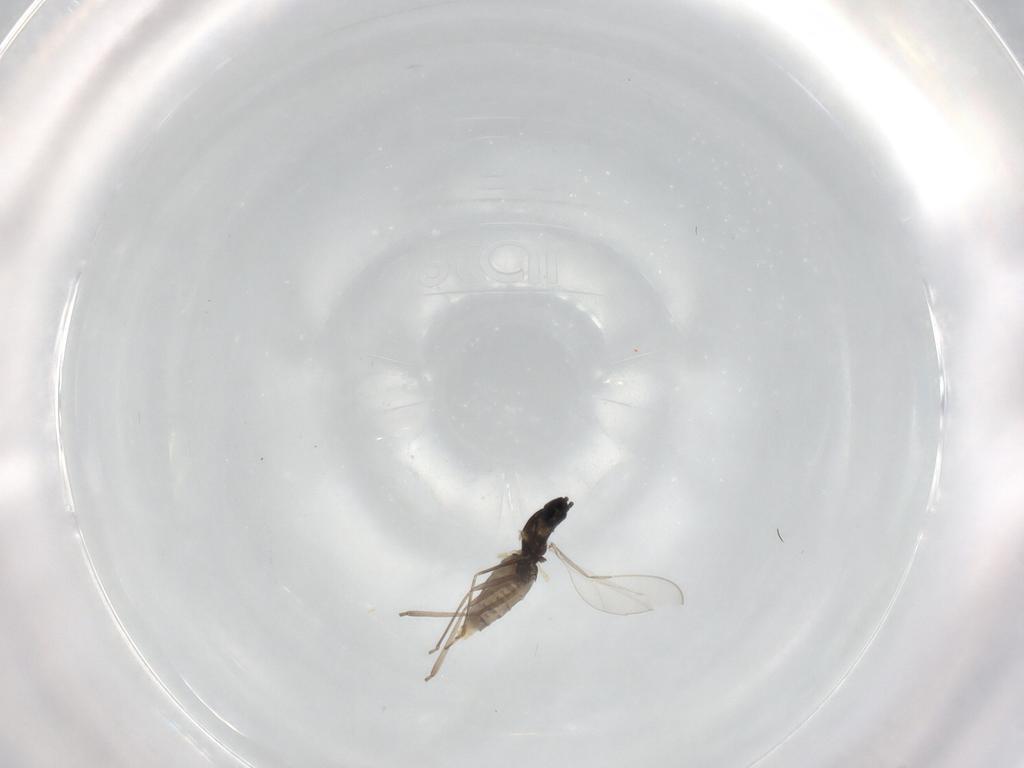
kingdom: Animalia
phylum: Arthropoda
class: Insecta
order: Diptera
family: Cecidomyiidae
